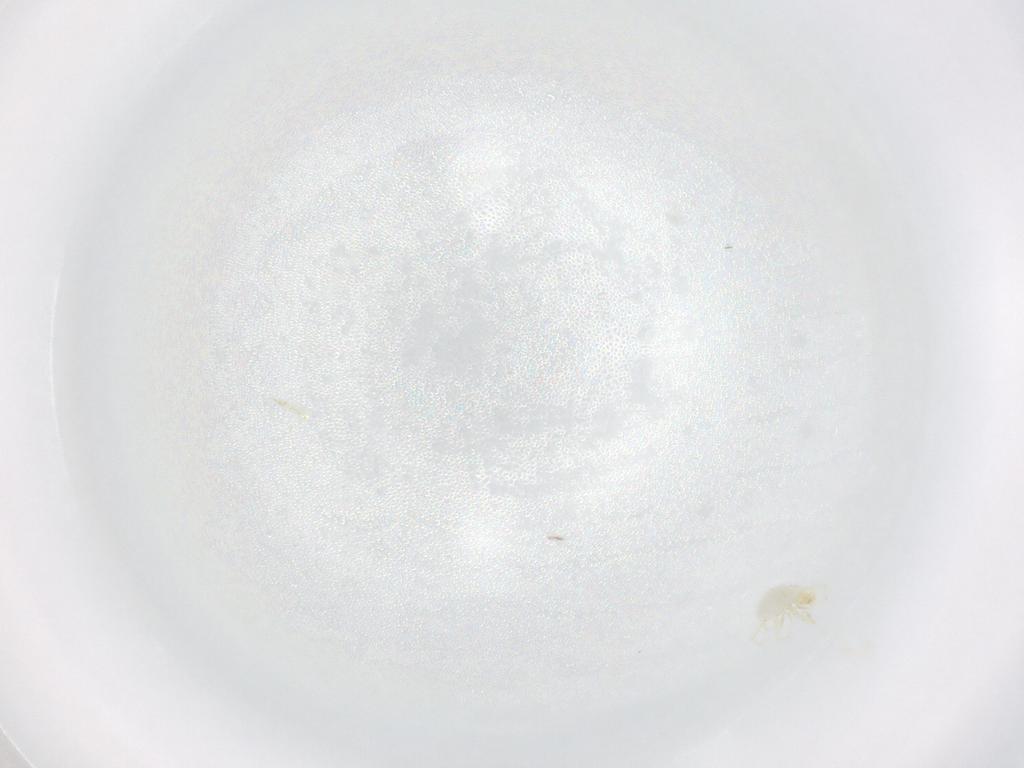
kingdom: Animalia
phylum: Arthropoda
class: Arachnida
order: Trombidiformes
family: Erythraeidae
